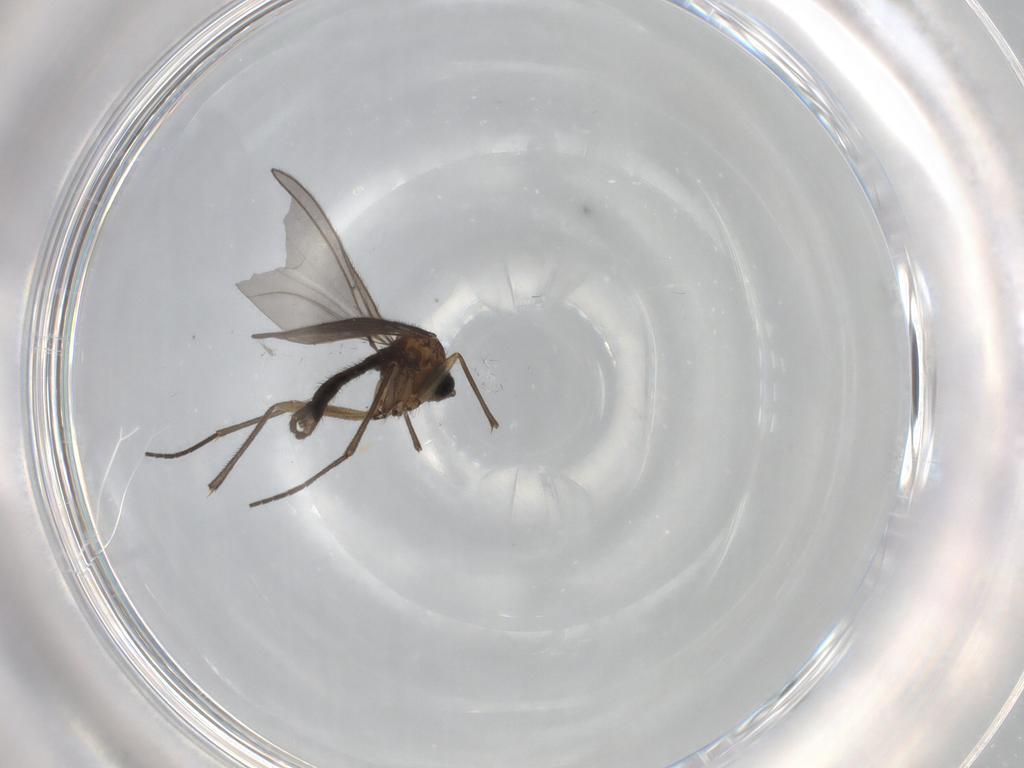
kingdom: Animalia
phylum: Arthropoda
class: Insecta
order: Diptera
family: Sciaridae
